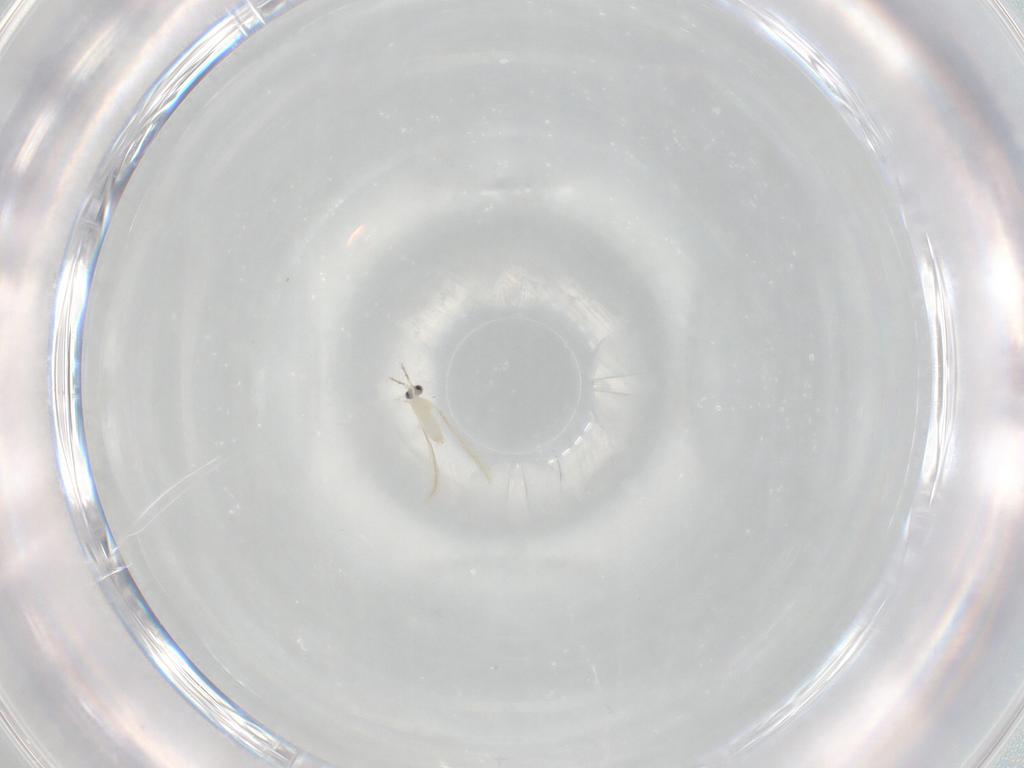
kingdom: Animalia
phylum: Arthropoda
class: Insecta
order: Diptera
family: Cecidomyiidae
